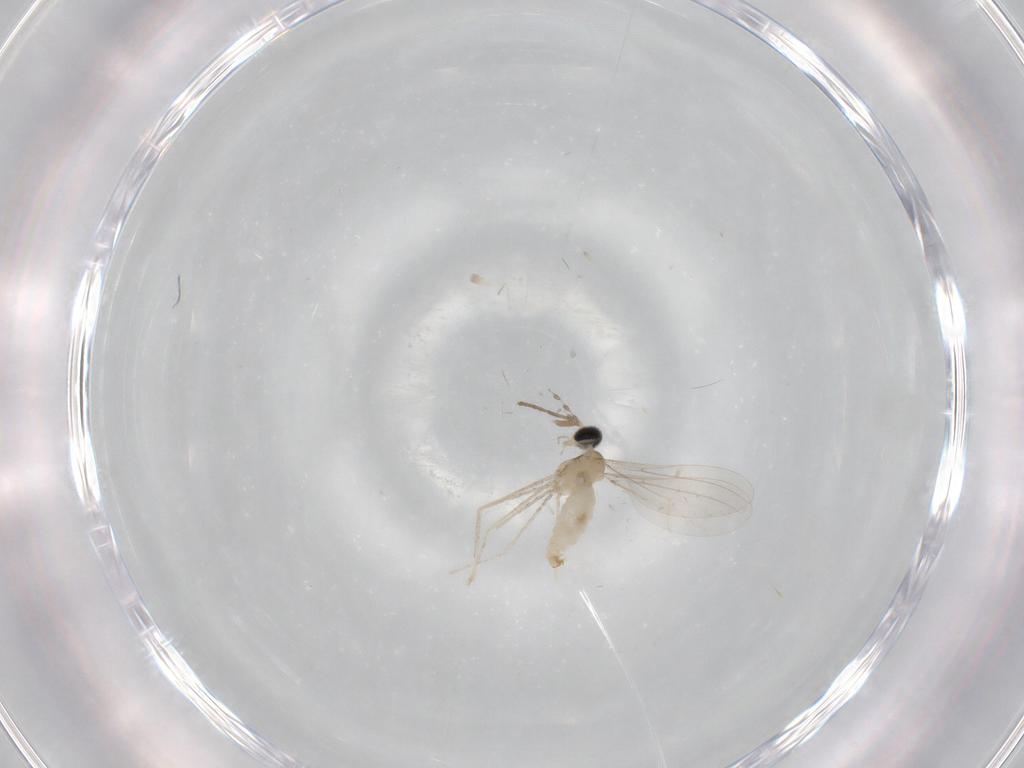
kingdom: Animalia
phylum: Arthropoda
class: Insecta
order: Diptera
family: Cecidomyiidae
